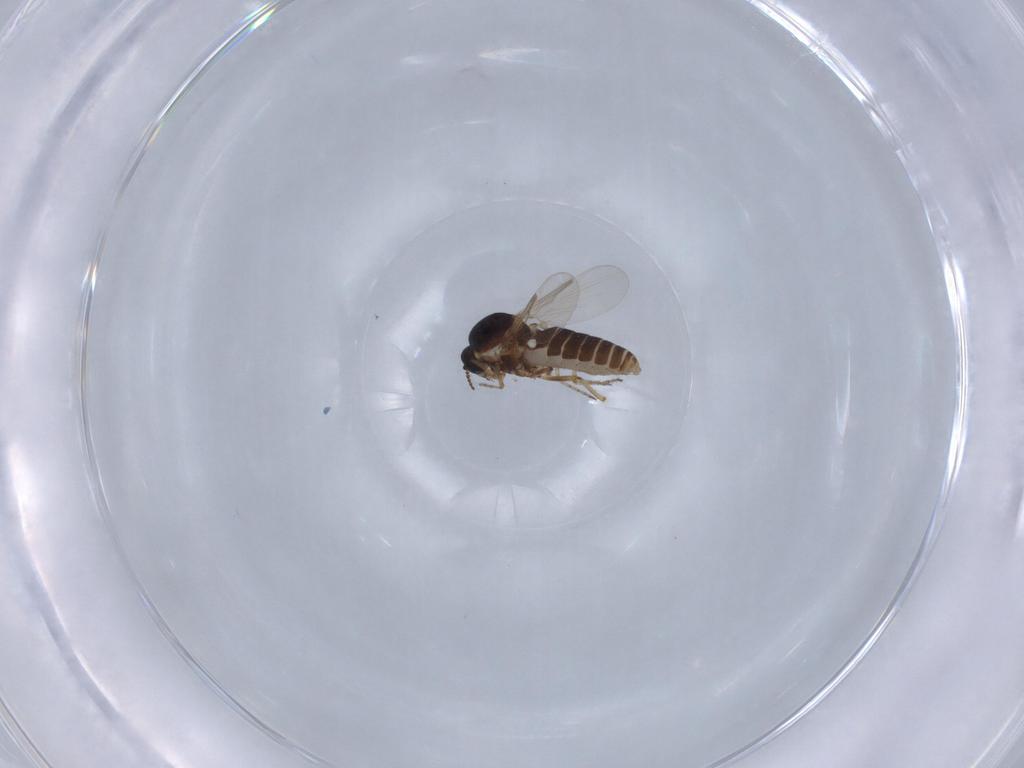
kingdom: Animalia
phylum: Arthropoda
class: Insecta
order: Diptera
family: Ceratopogonidae
